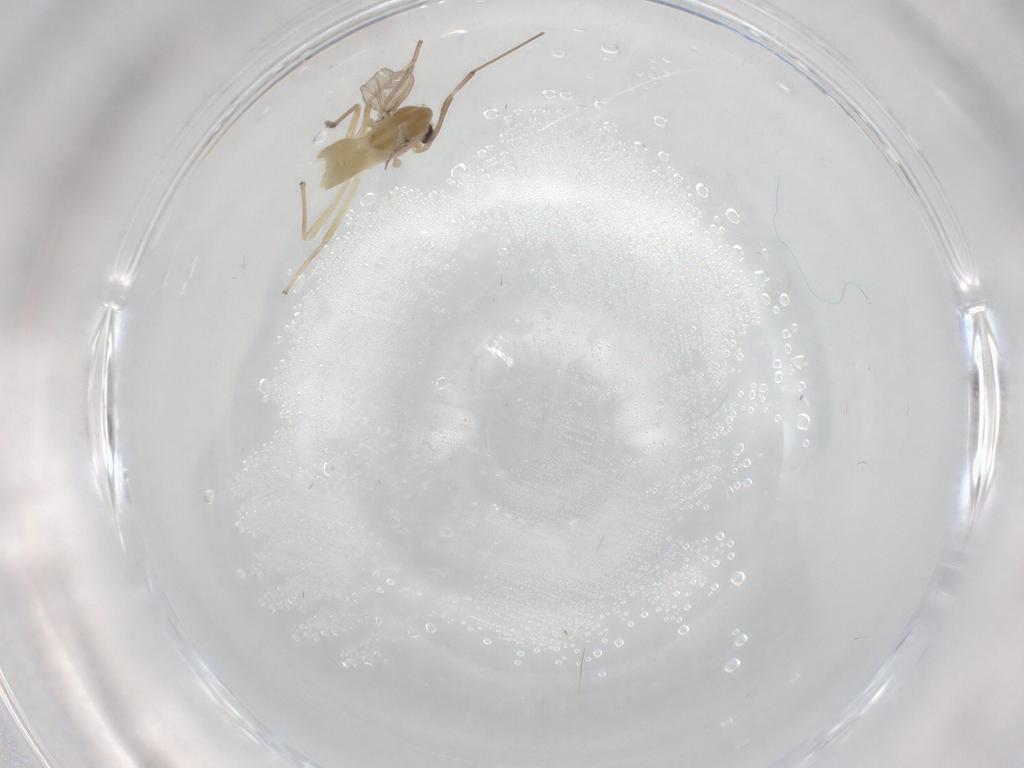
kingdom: Animalia
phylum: Arthropoda
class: Insecta
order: Diptera
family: Chironomidae
